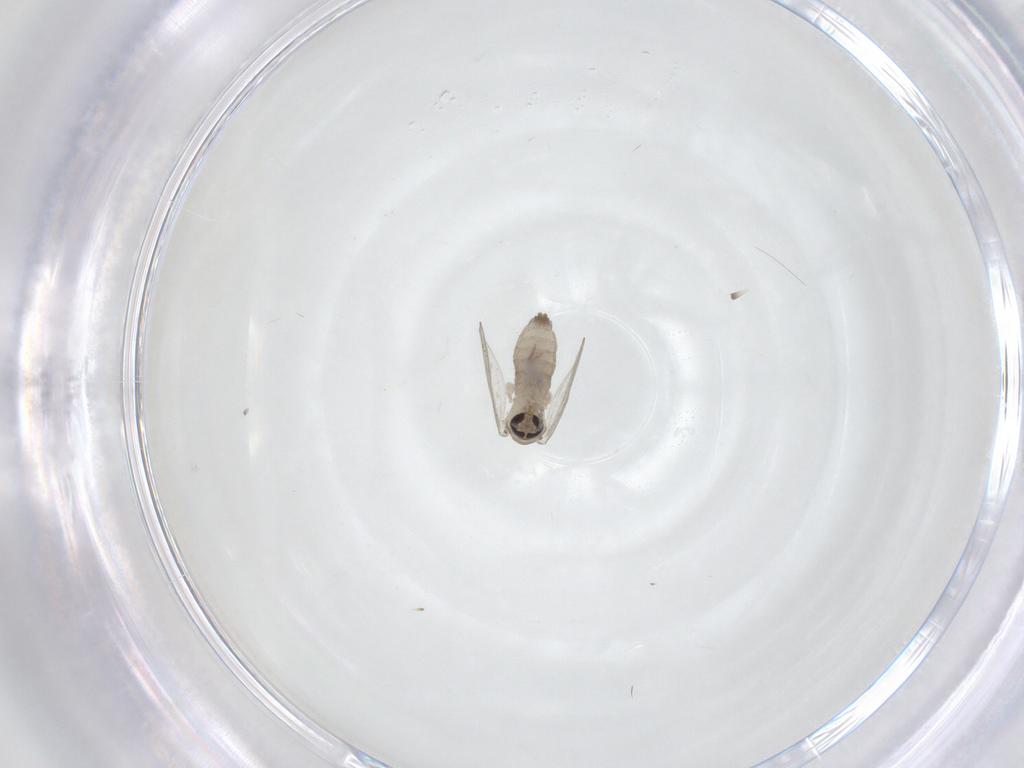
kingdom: Animalia
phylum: Arthropoda
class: Insecta
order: Diptera
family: Psychodidae
